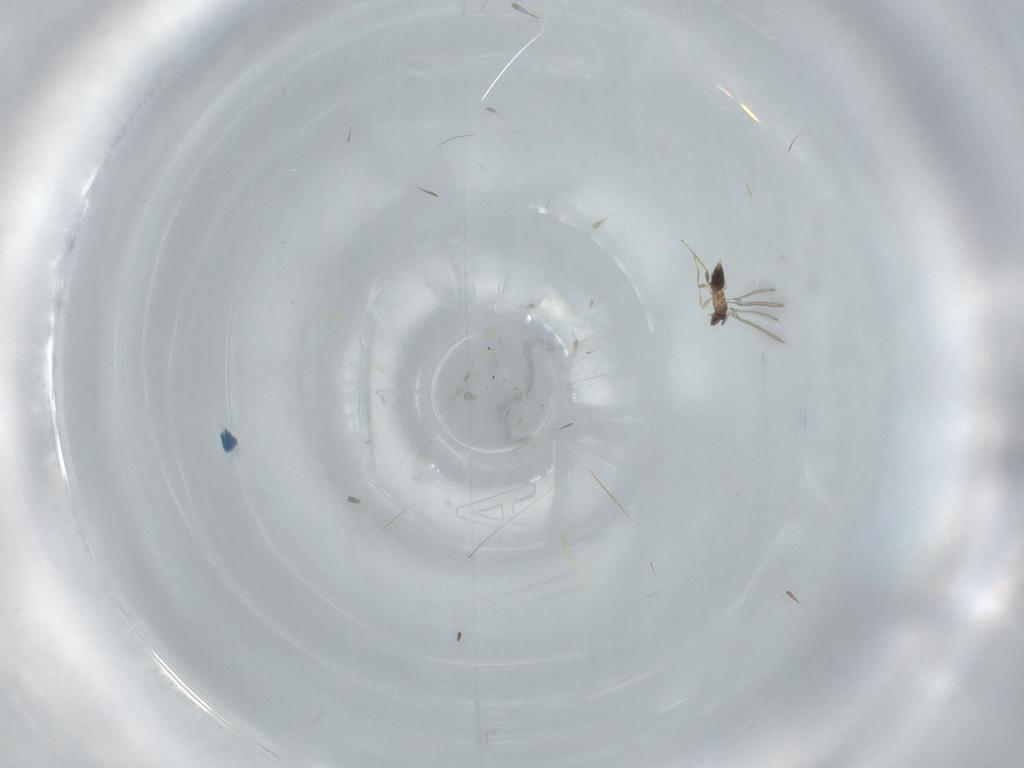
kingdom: Animalia
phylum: Arthropoda
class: Insecta
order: Hymenoptera
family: Mymaridae
